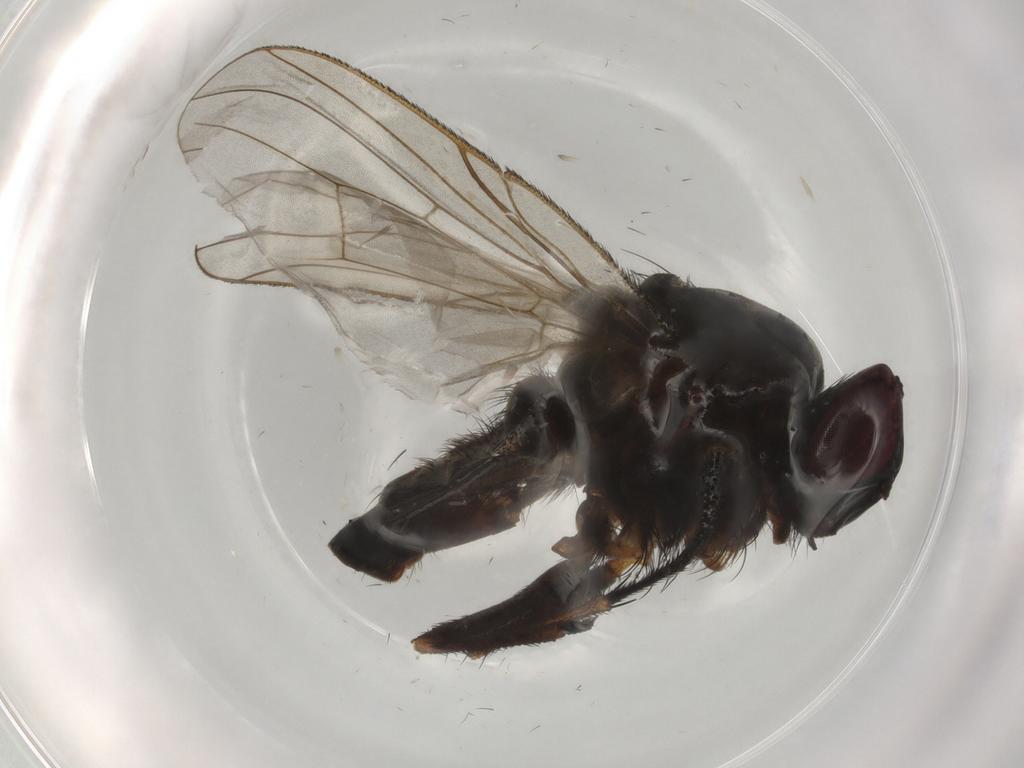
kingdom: Animalia
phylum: Arthropoda
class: Insecta
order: Diptera
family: Muscidae
